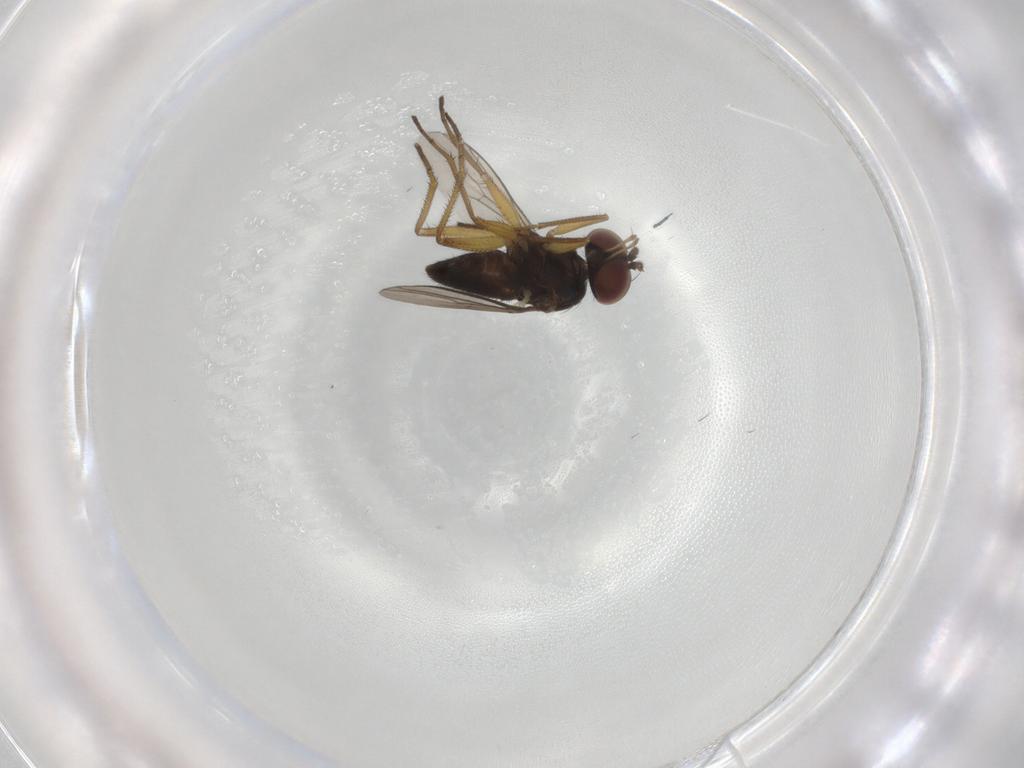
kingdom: Animalia
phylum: Arthropoda
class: Insecta
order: Diptera
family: Dolichopodidae
